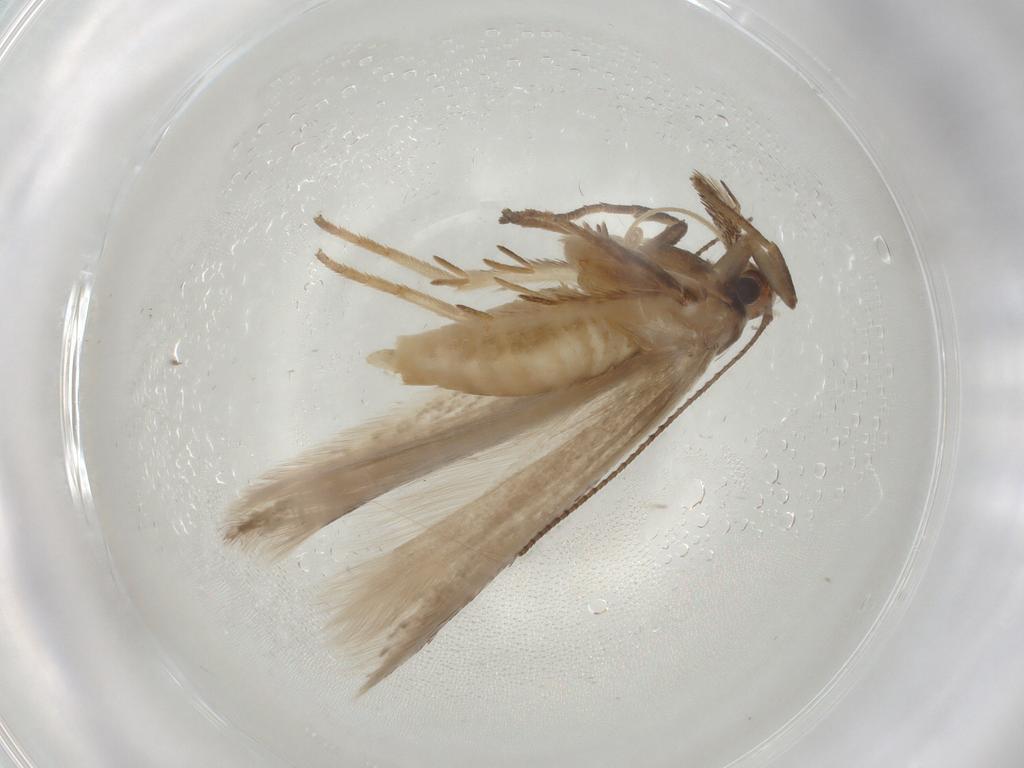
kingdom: Animalia
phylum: Arthropoda
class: Insecta
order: Lepidoptera
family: Gelechiidae
